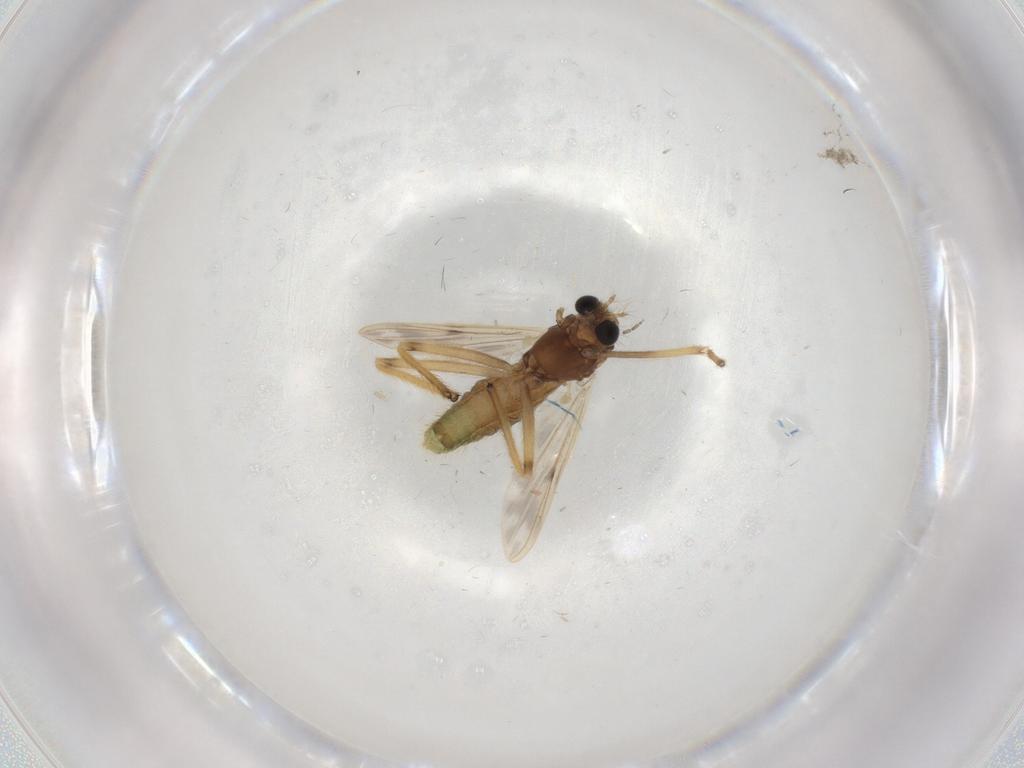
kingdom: Animalia
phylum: Arthropoda
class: Insecta
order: Diptera
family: Chironomidae
